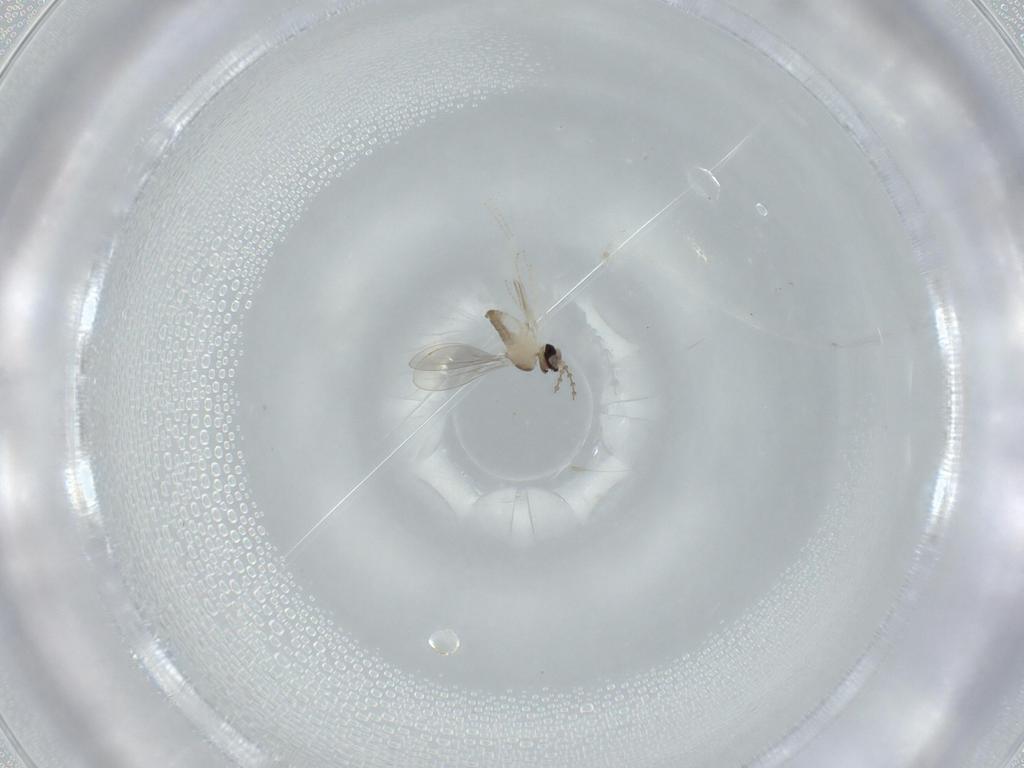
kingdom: Animalia
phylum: Arthropoda
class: Insecta
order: Diptera
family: Cecidomyiidae
